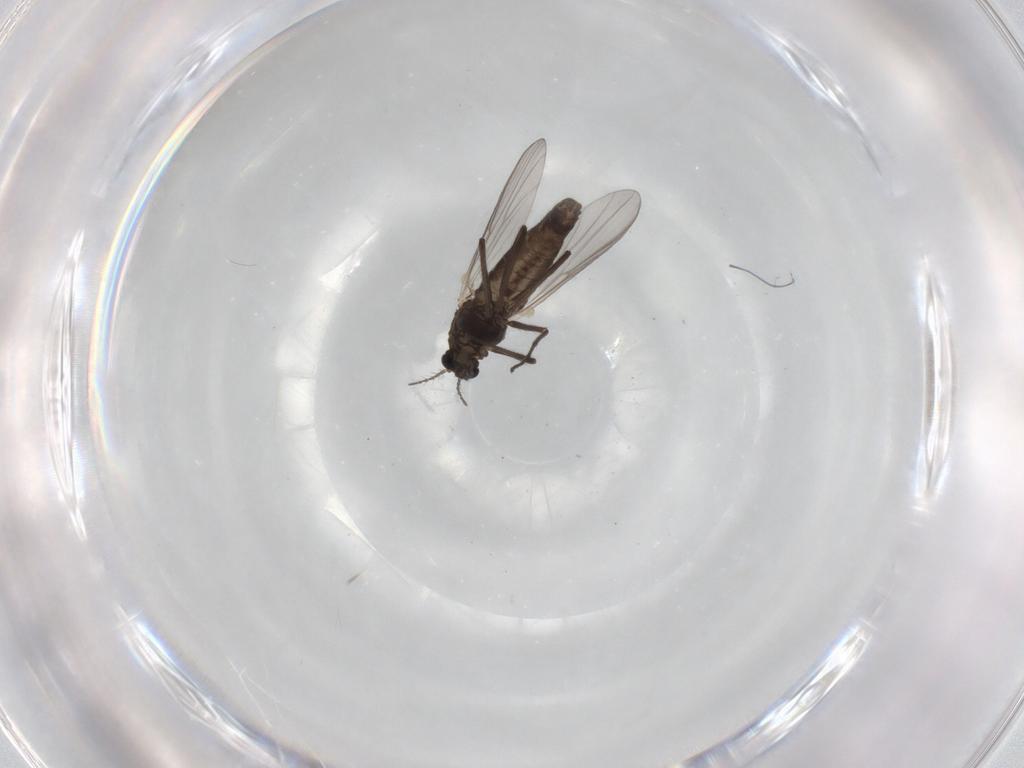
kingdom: Animalia
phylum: Arthropoda
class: Insecta
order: Diptera
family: Chironomidae
